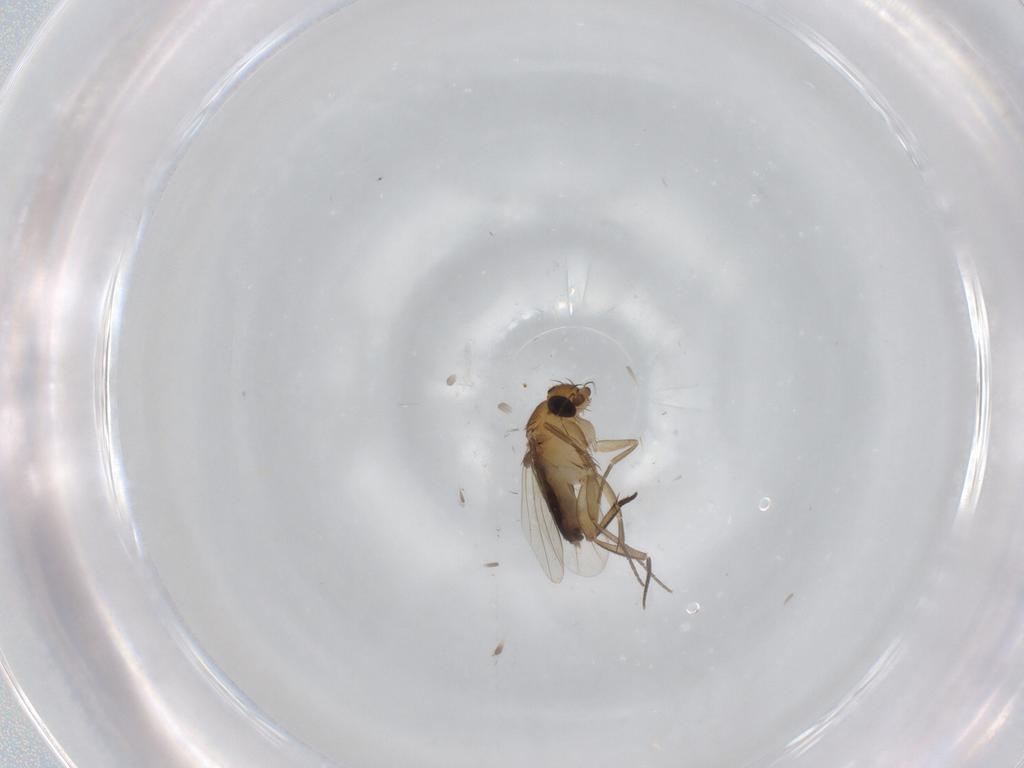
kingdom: Animalia
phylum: Arthropoda
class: Insecta
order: Diptera
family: Phoridae
